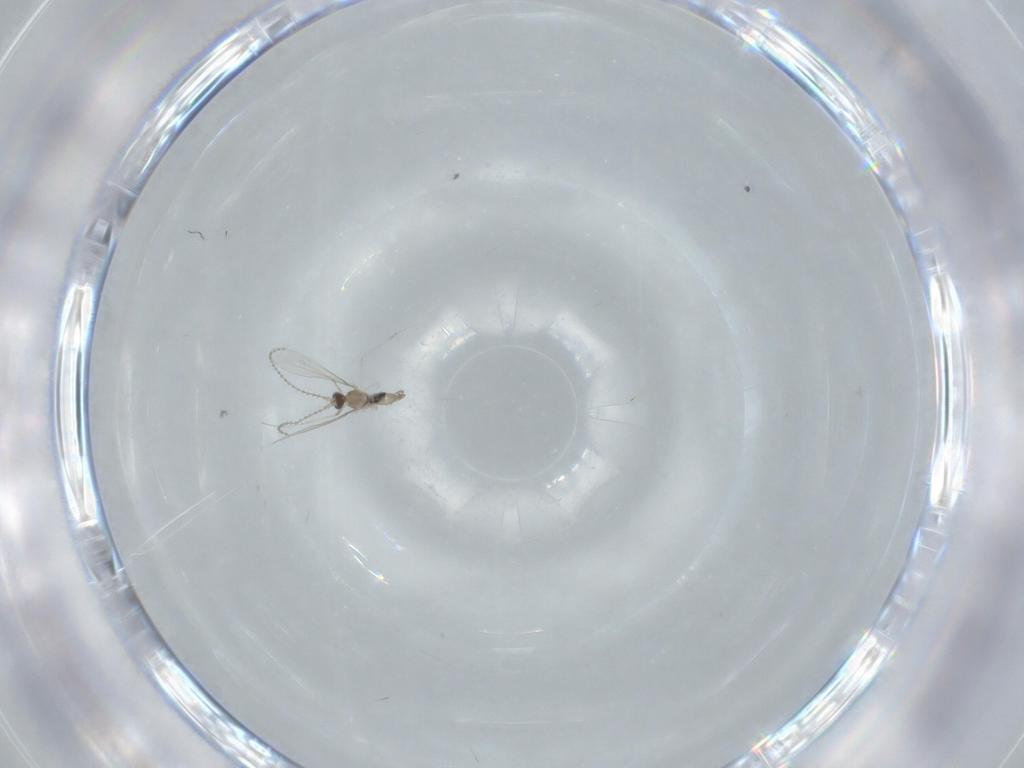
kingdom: Animalia
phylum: Arthropoda
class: Insecta
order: Diptera
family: Cecidomyiidae
